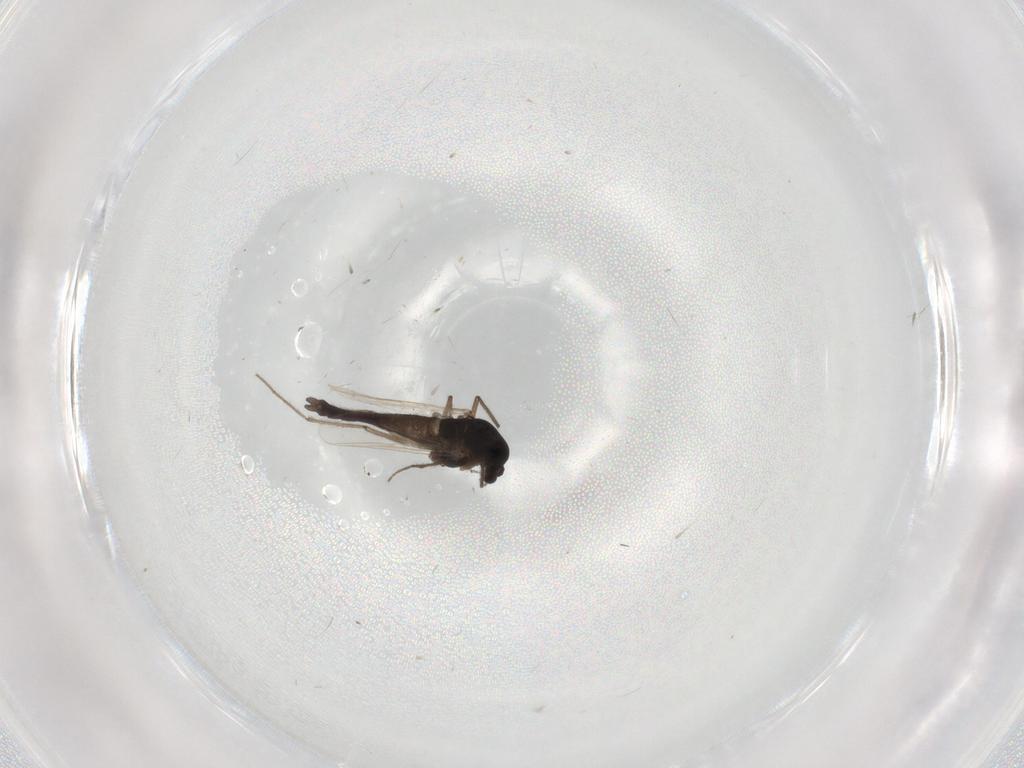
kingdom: Animalia
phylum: Arthropoda
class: Insecta
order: Diptera
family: Chironomidae
